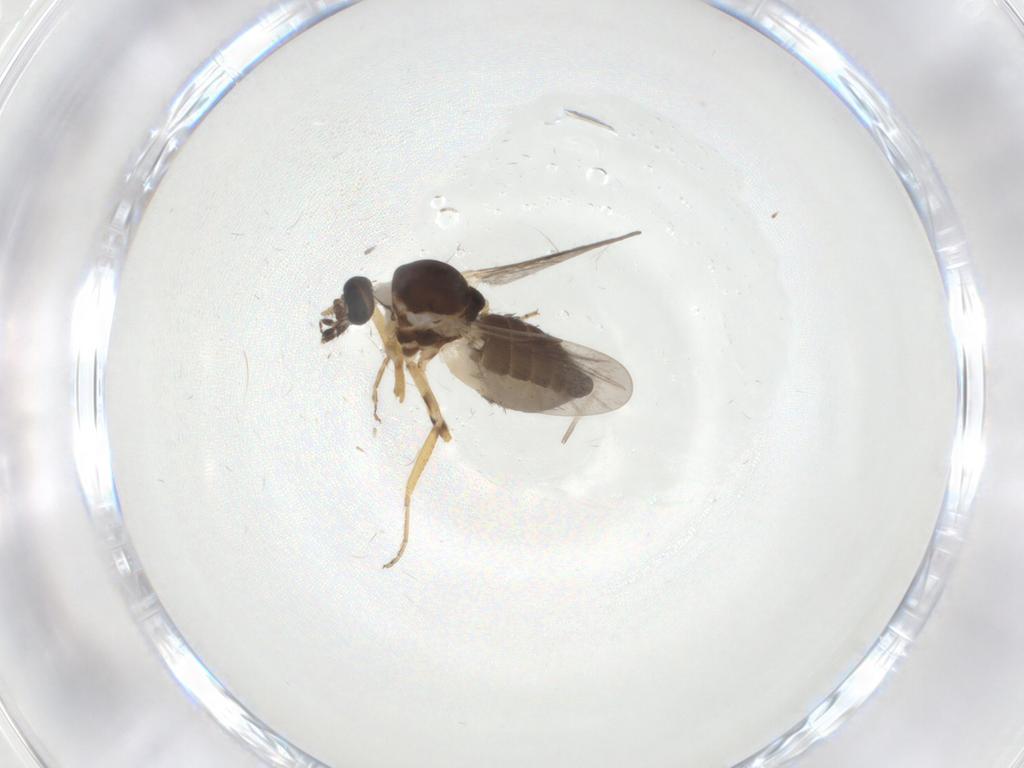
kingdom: Animalia
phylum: Arthropoda
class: Insecta
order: Diptera
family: Ceratopogonidae
